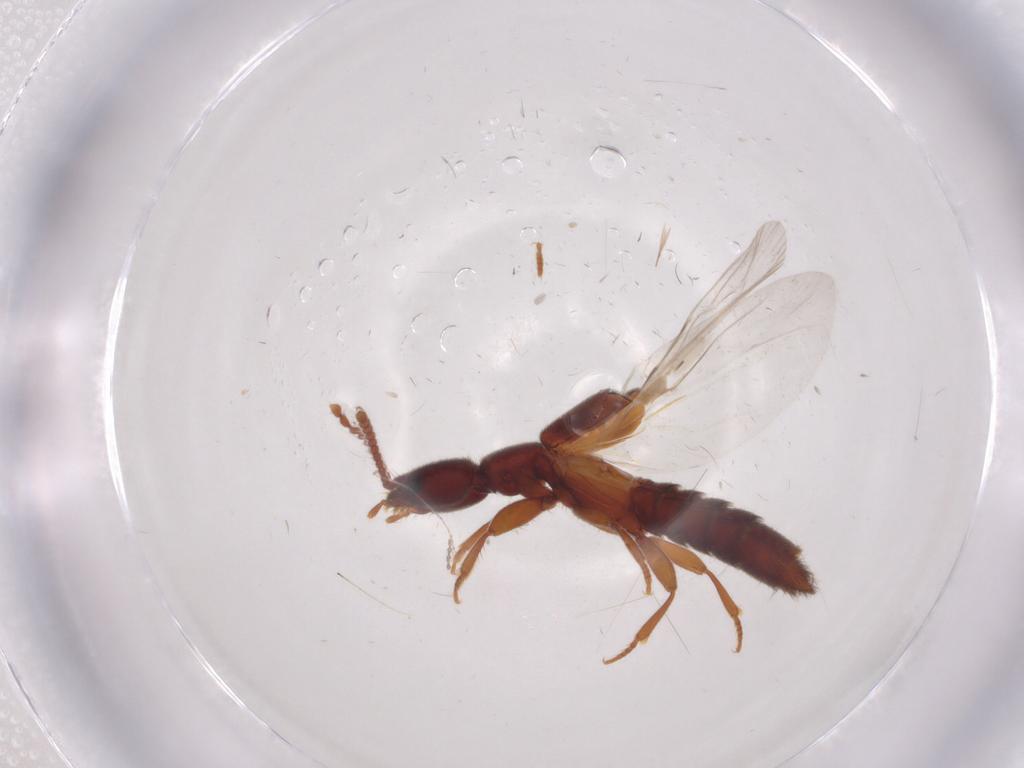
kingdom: Animalia
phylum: Arthropoda
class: Insecta
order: Coleoptera
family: Staphylinidae
